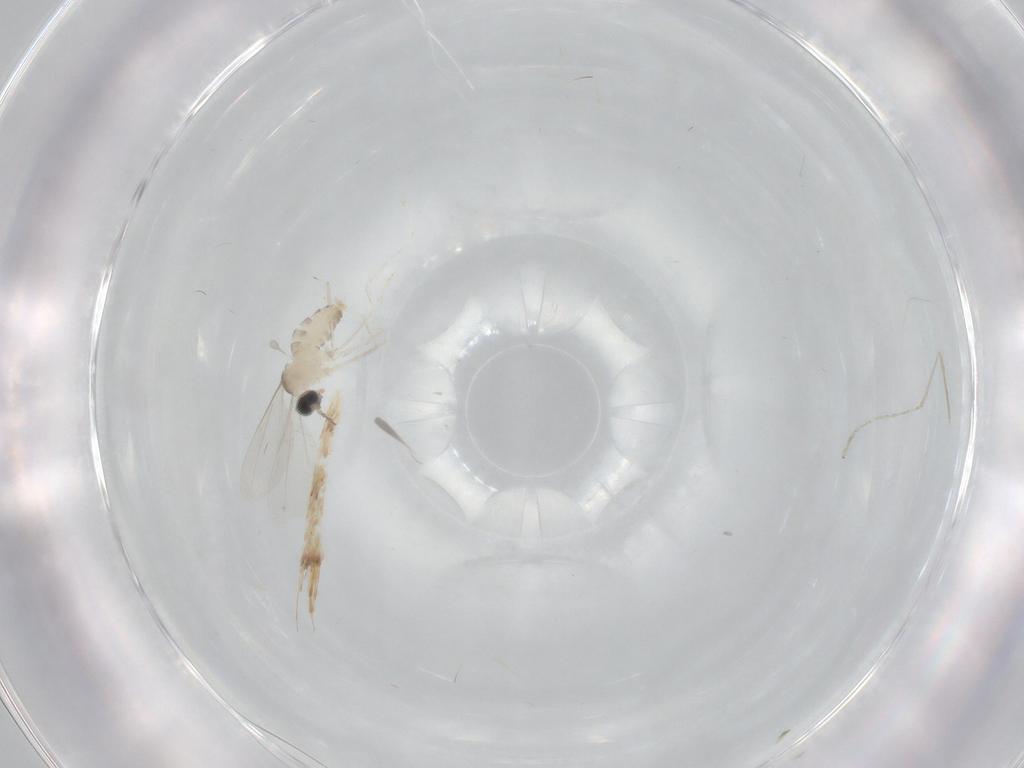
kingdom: Animalia
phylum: Arthropoda
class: Insecta
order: Diptera
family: Cecidomyiidae
